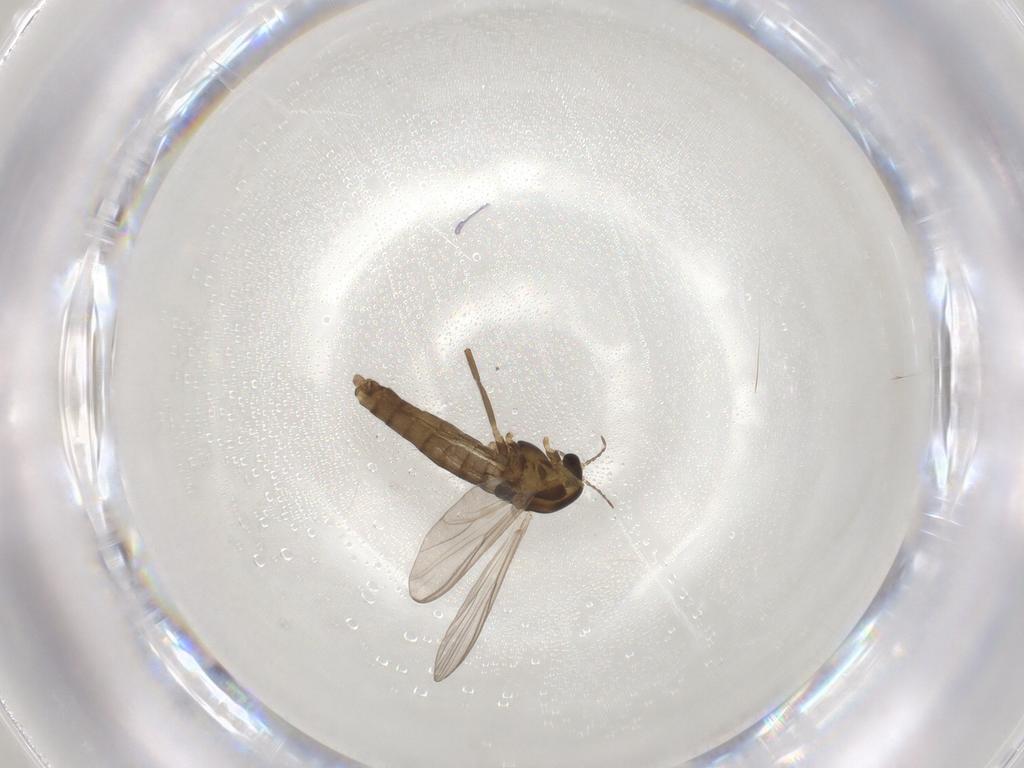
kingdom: Animalia
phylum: Arthropoda
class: Insecta
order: Diptera
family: Chironomidae
